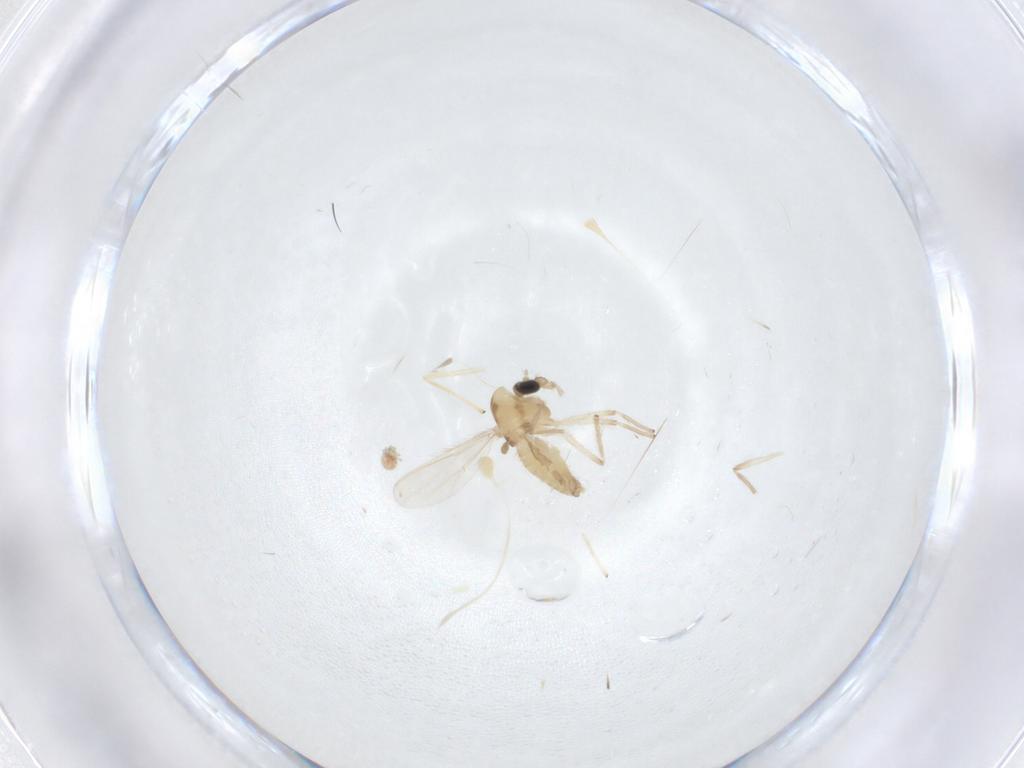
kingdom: Animalia
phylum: Arthropoda
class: Insecta
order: Diptera
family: Chironomidae
